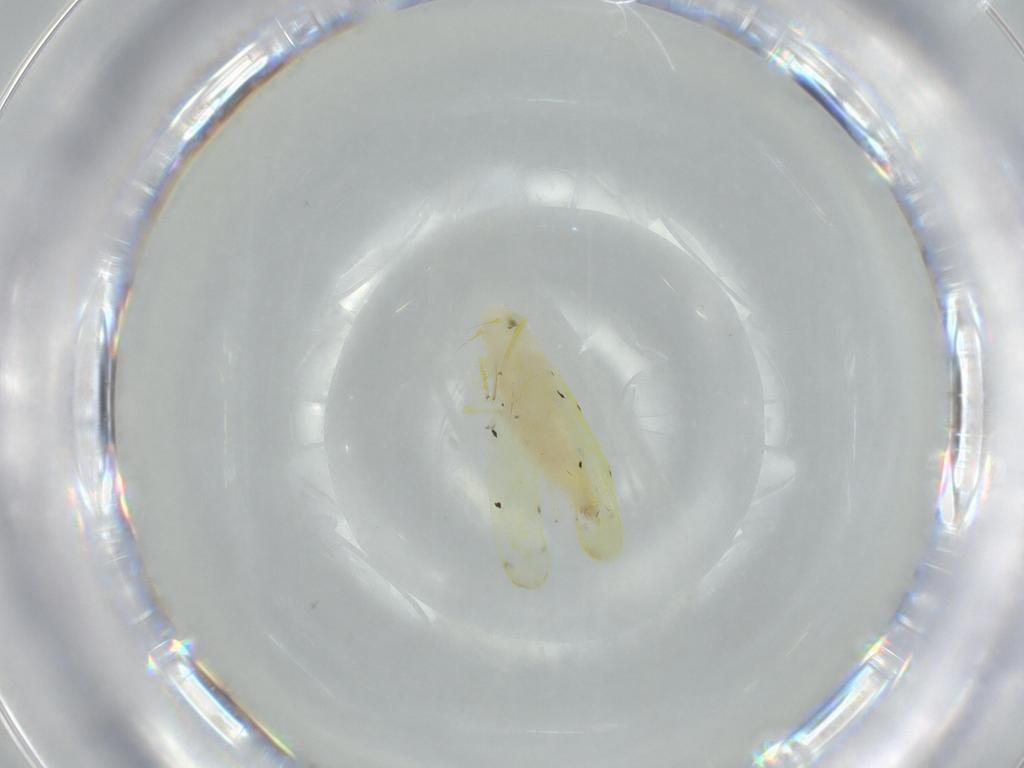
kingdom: Animalia
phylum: Arthropoda
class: Insecta
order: Hemiptera
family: Cicadellidae
